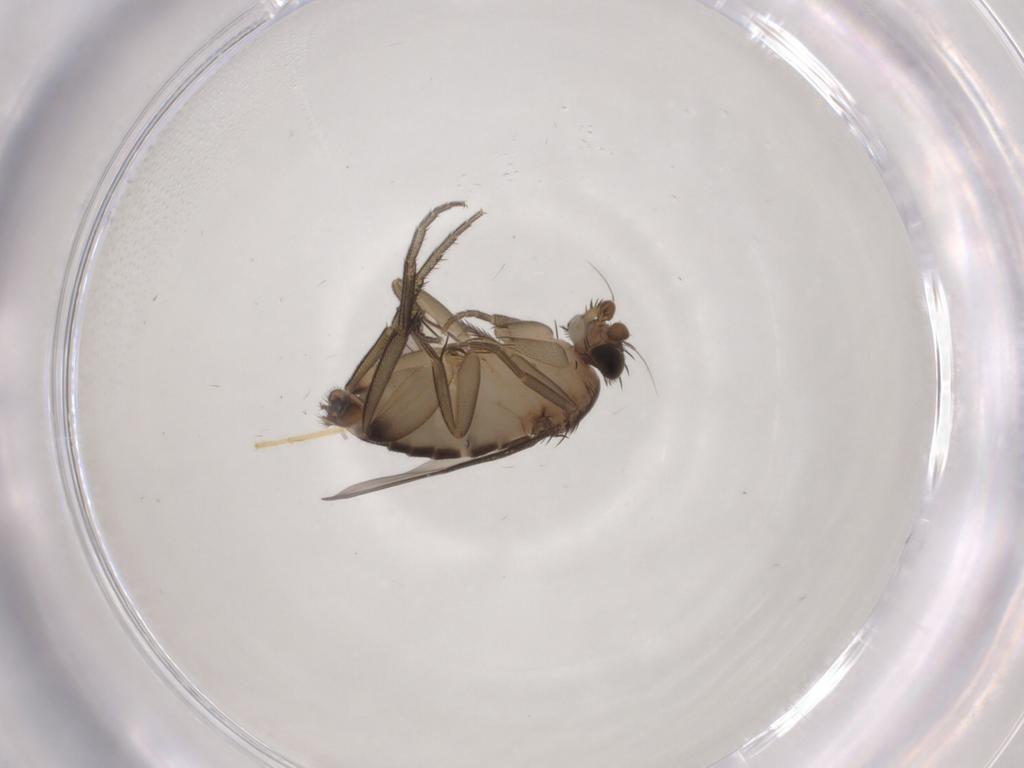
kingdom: Animalia
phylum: Arthropoda
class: Insecta
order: Diptera
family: Phoridae
